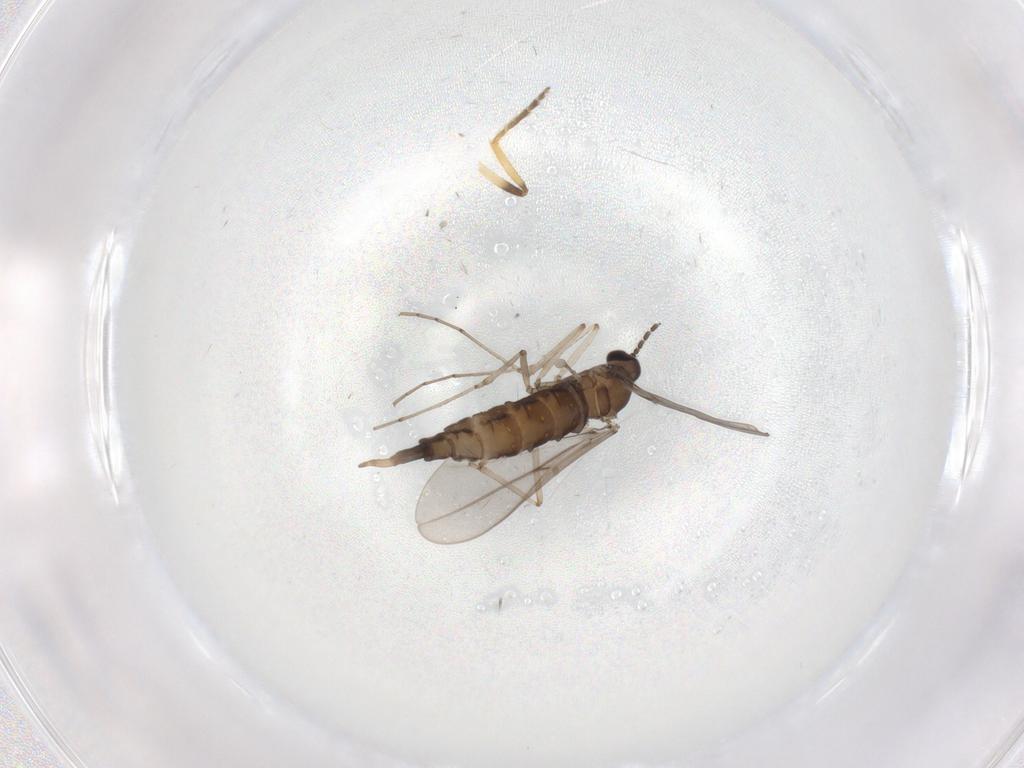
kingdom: Animalia
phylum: Arthropoda
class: Insecta
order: Diptera
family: Cecidomyiidae
